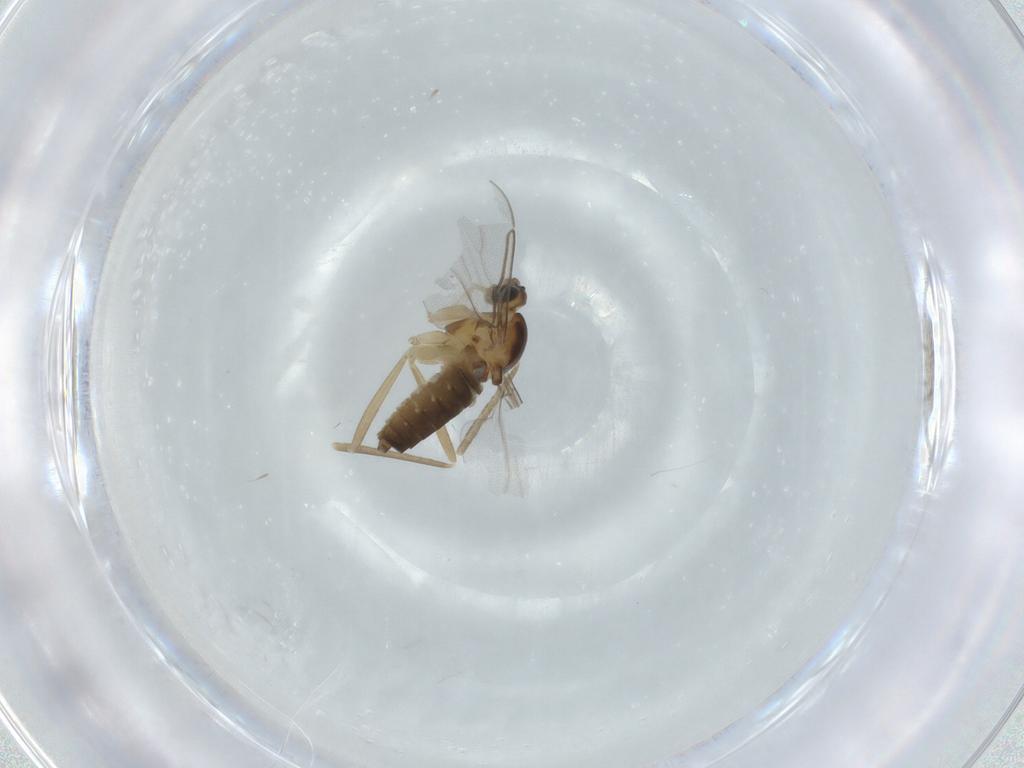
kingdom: Animalia
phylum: Arthropoda
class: Insecta
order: Diptera
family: Cecidomyiidae
